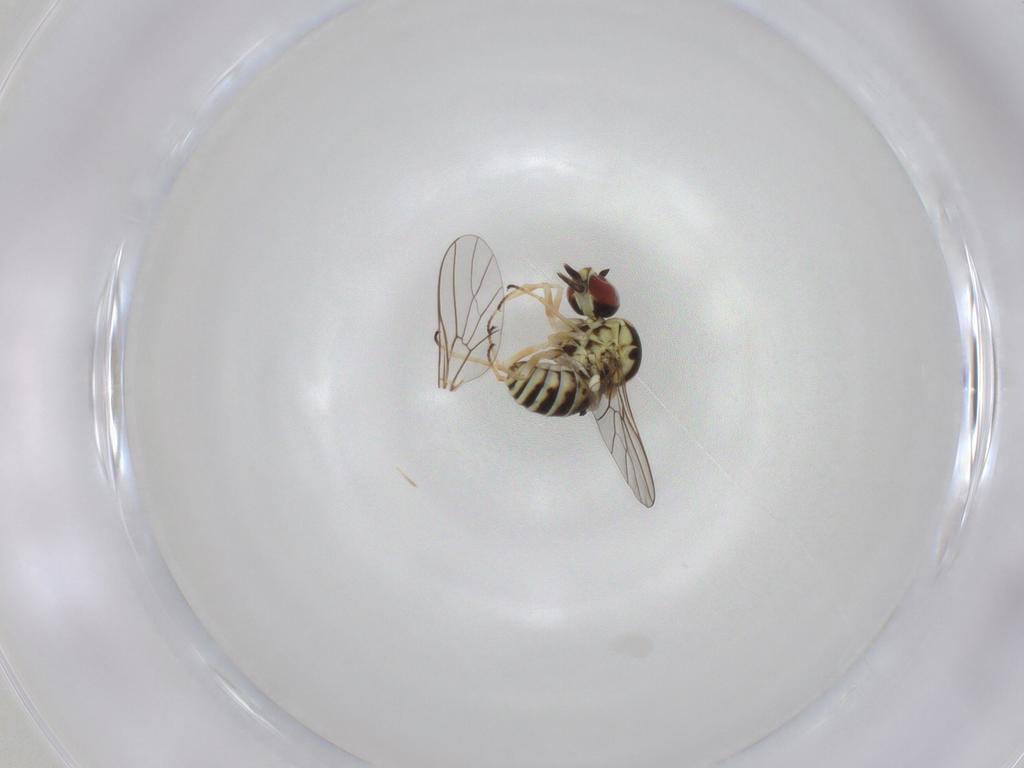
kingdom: Animalia
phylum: Arthropoda
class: Insecta
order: Diptera
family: Bombyliidae
